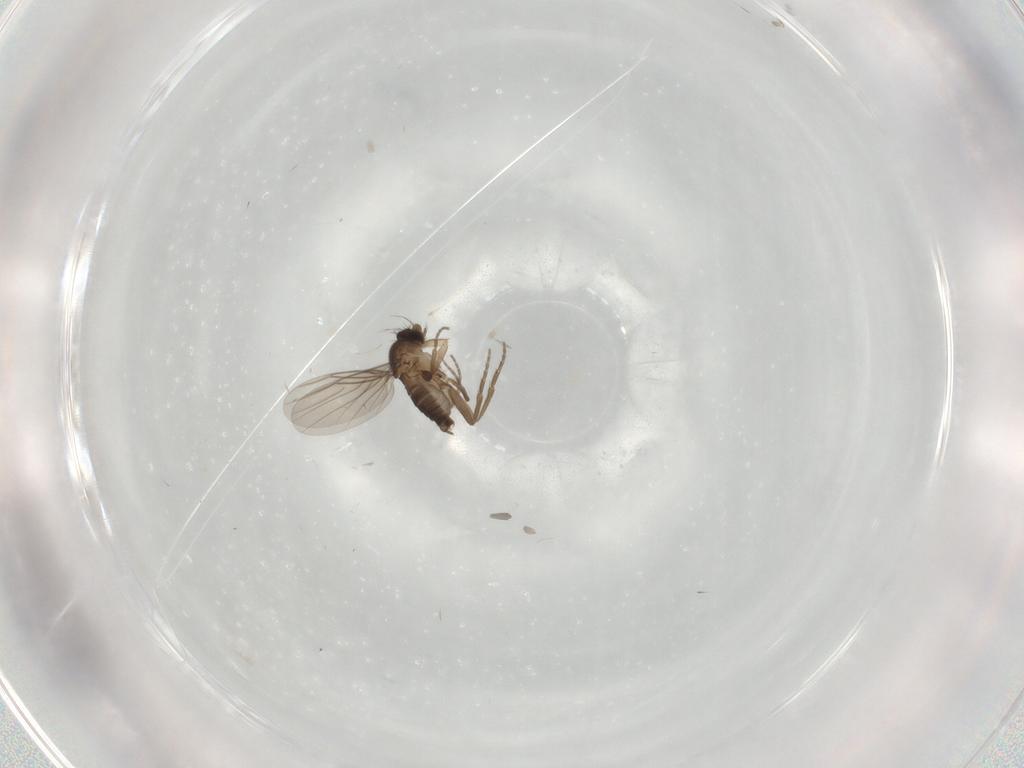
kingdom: Animalia
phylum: Arthropoda
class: Insecta
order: Diptera
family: Phoridae
